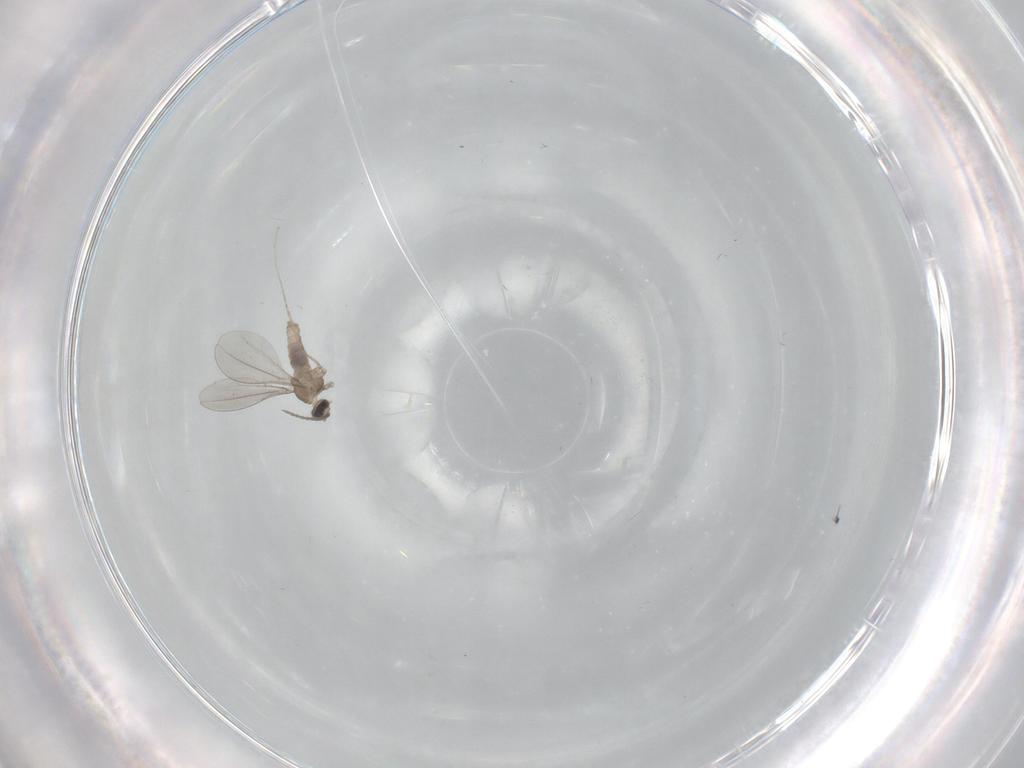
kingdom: Animalia
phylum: Arthropoda
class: Insecta
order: Diptera
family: Cecidomyiidae
